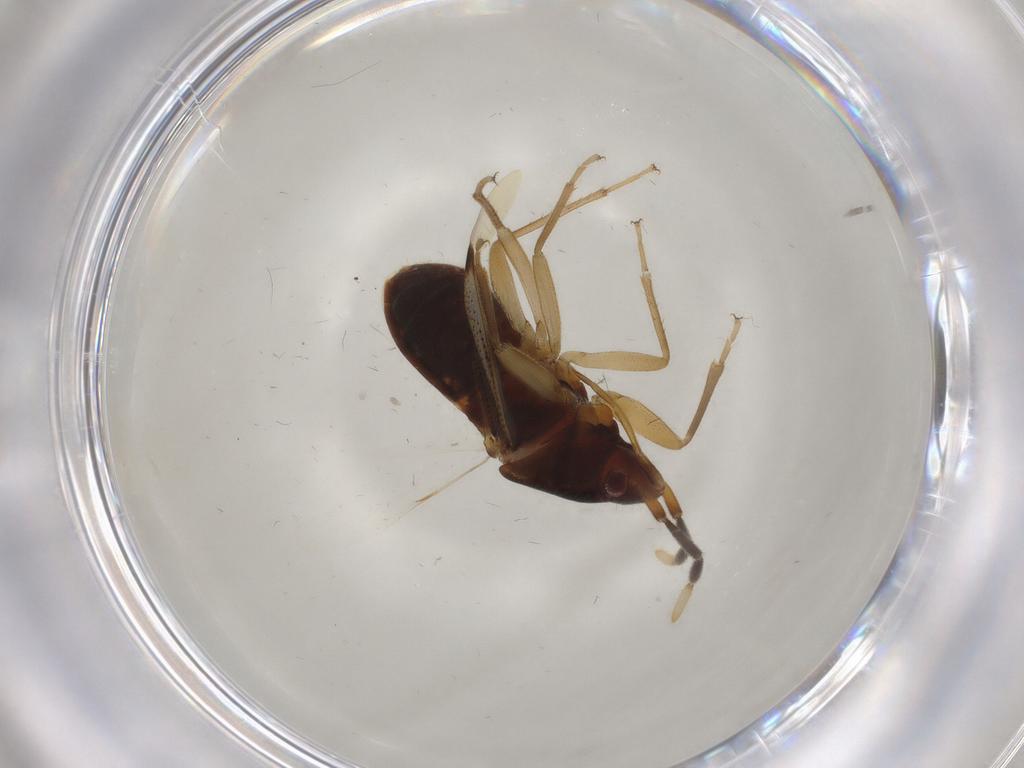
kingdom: Animalia
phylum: Arthropoda
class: Insecta
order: Hemiptera
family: Rhyparochromidae
